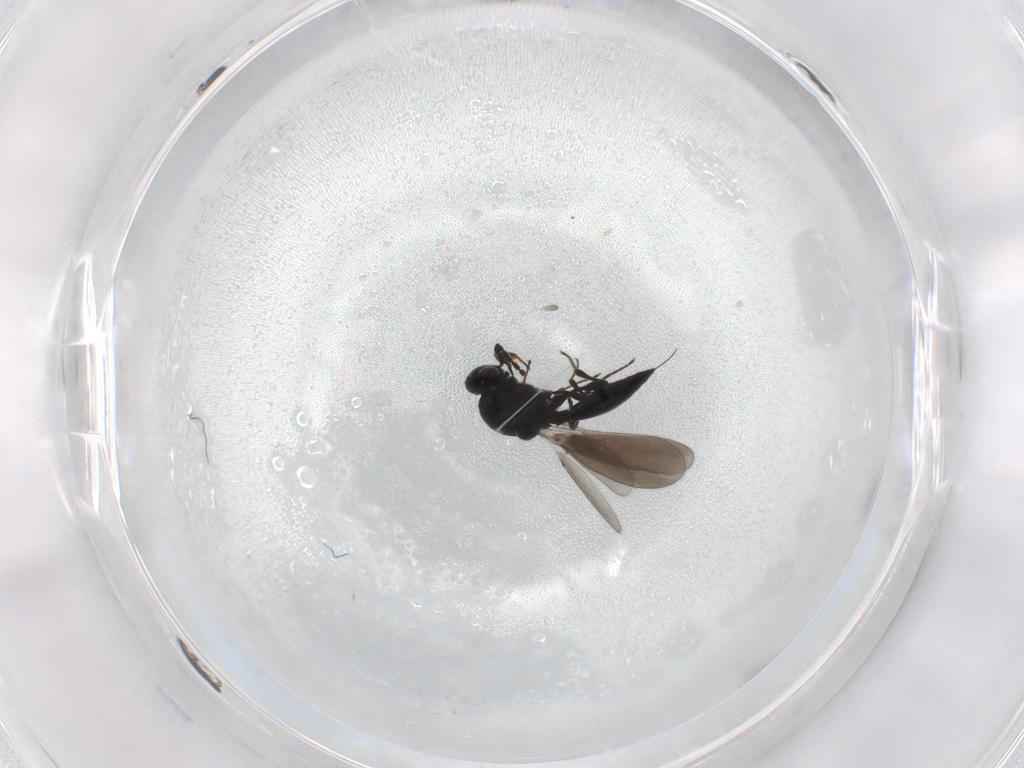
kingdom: Animalia
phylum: Arthropoda
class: Insecta
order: Hymenoptera
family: Platygastridae
